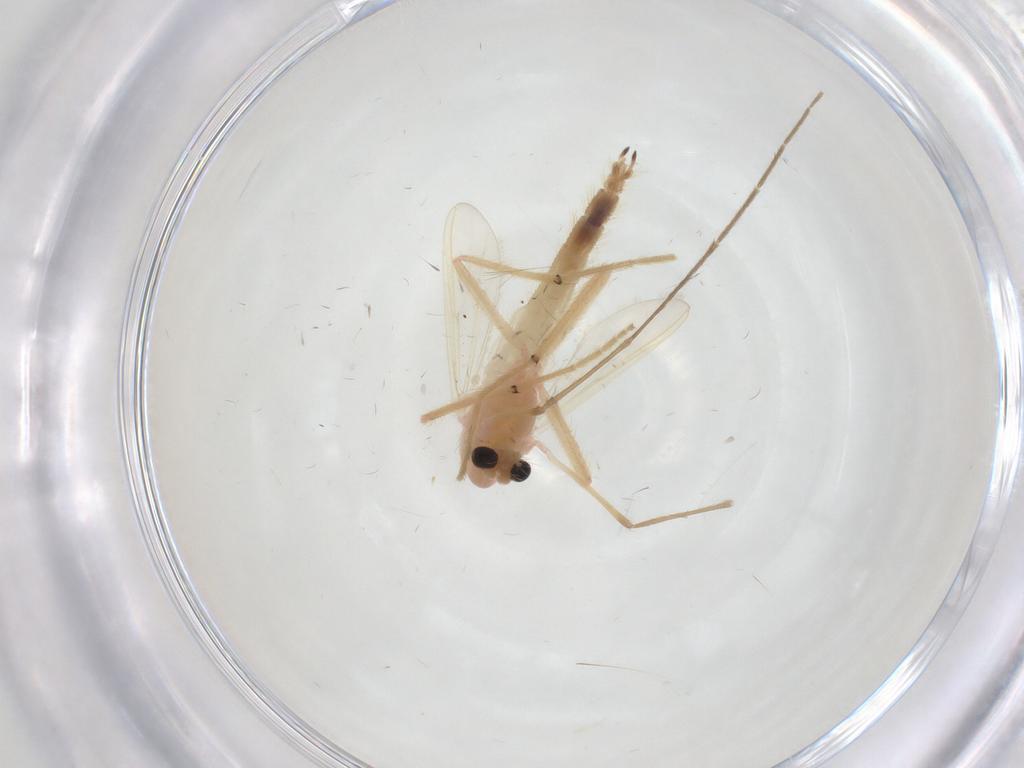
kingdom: Animalia
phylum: Arthropoda
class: Insecta
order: Diptera
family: Chironomidae
